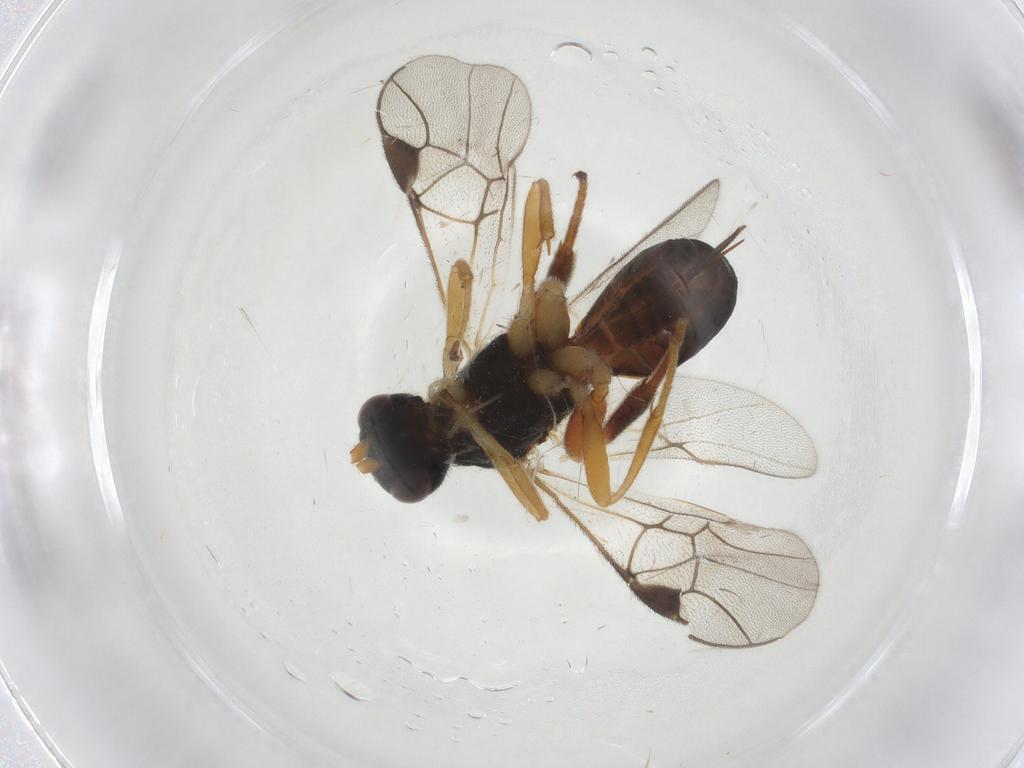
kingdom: Animalia
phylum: Arthropoda
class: Insecta
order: Hymenoptera
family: Braconidae
